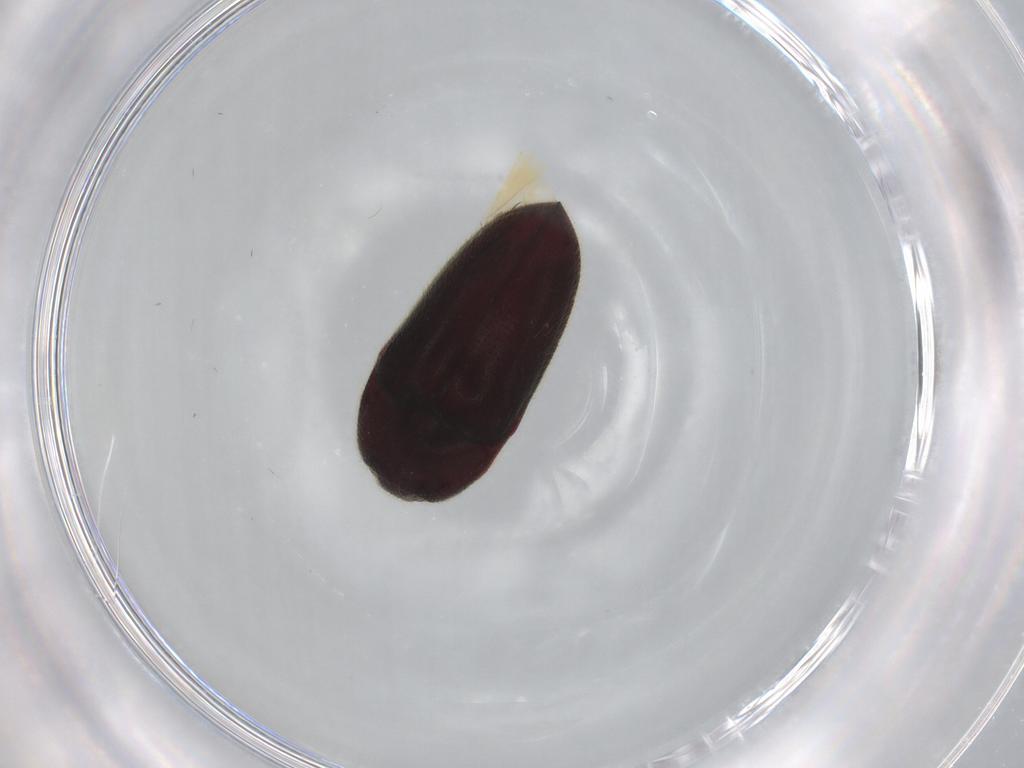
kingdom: Animalia
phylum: Arthropoda
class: Insecta
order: Coleoptera
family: Throscidae
